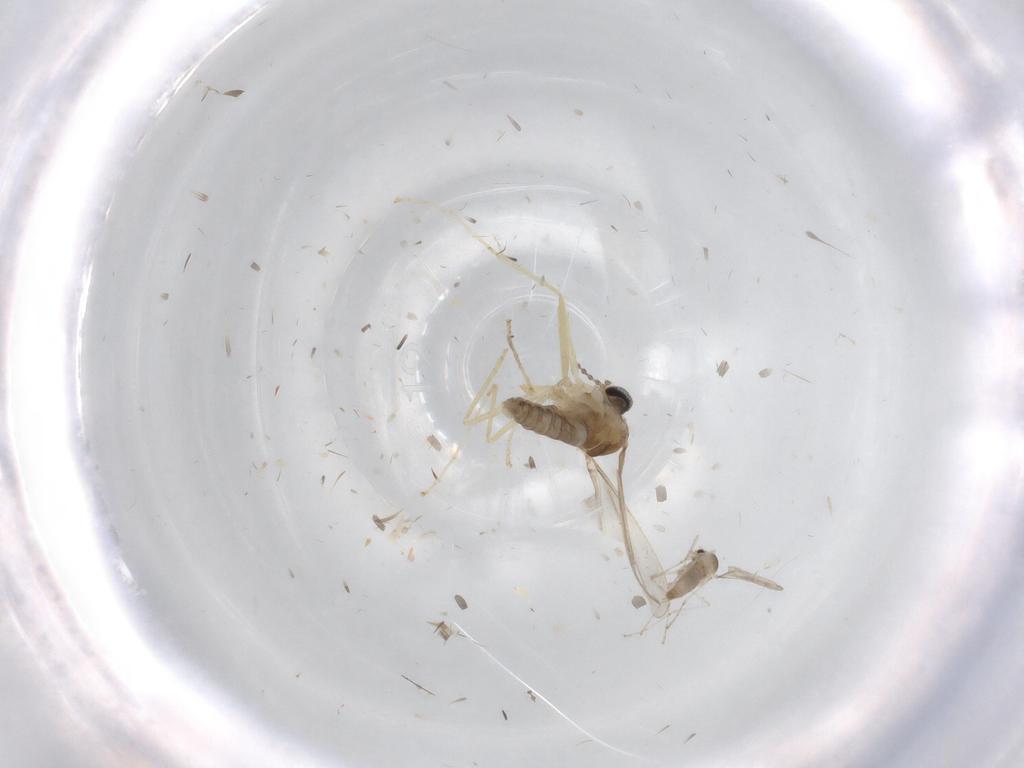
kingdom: Animalia
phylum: Arthropoda
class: Insecta
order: Diptera
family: Cecidomyiidae
